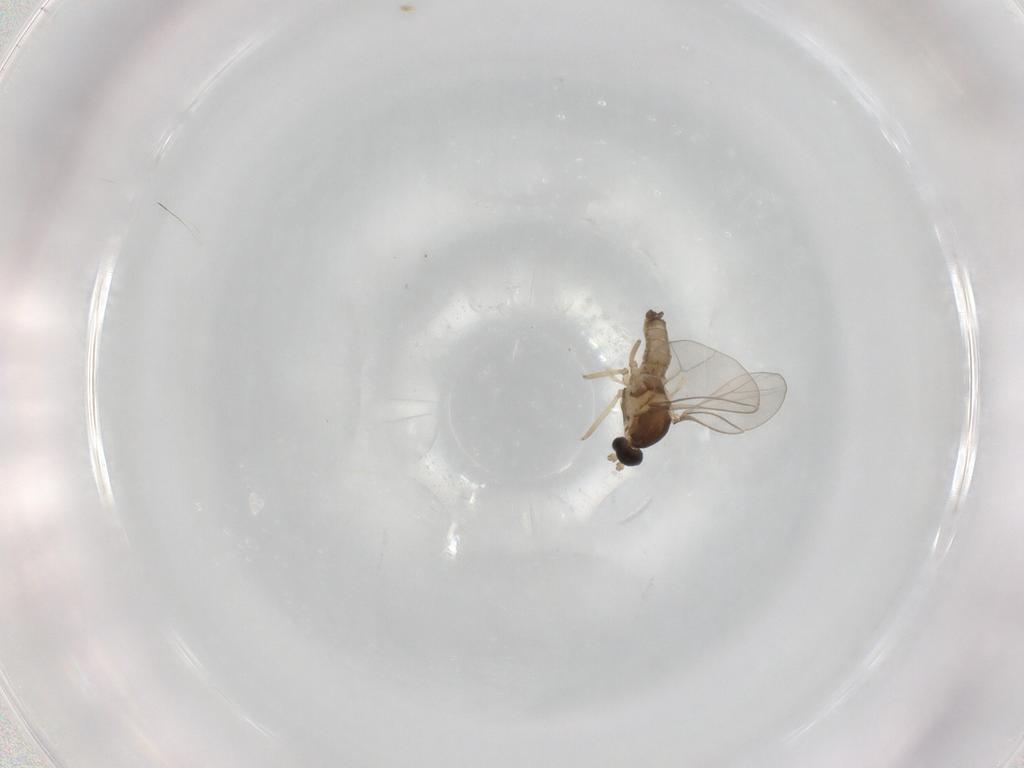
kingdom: Animalia
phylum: Arthropoda
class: Insecta
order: Diptera
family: Cecidomyiidae
